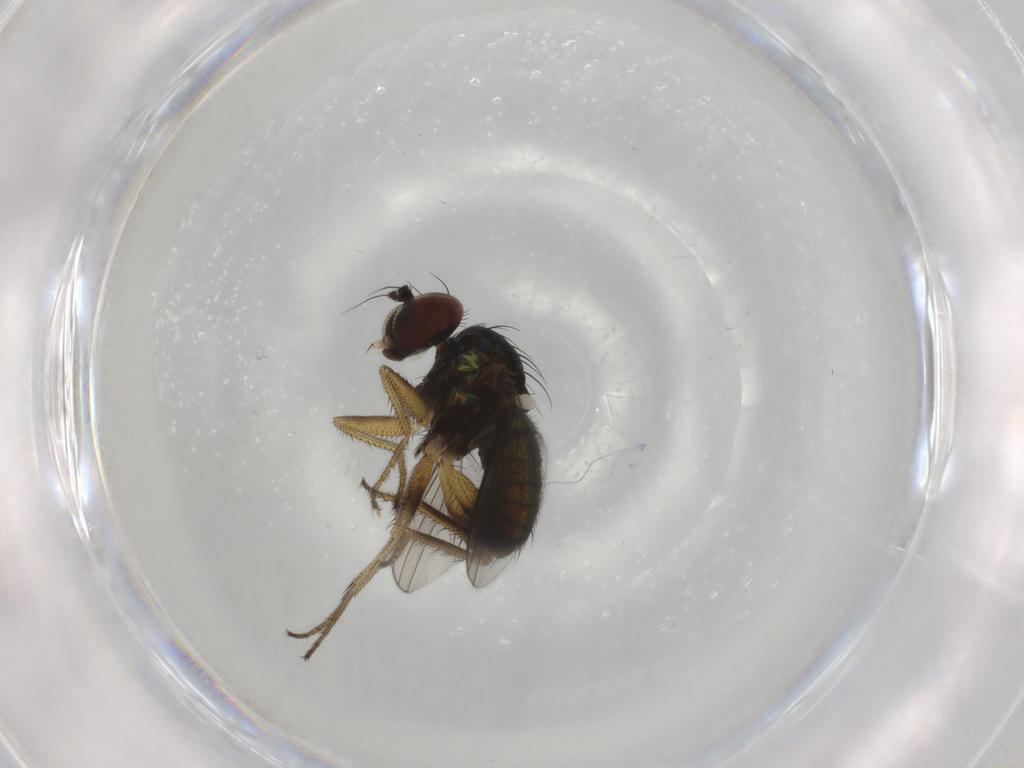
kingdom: Animalia
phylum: Arthropoda
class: Insecta
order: Diptera
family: Dolichopodidae
